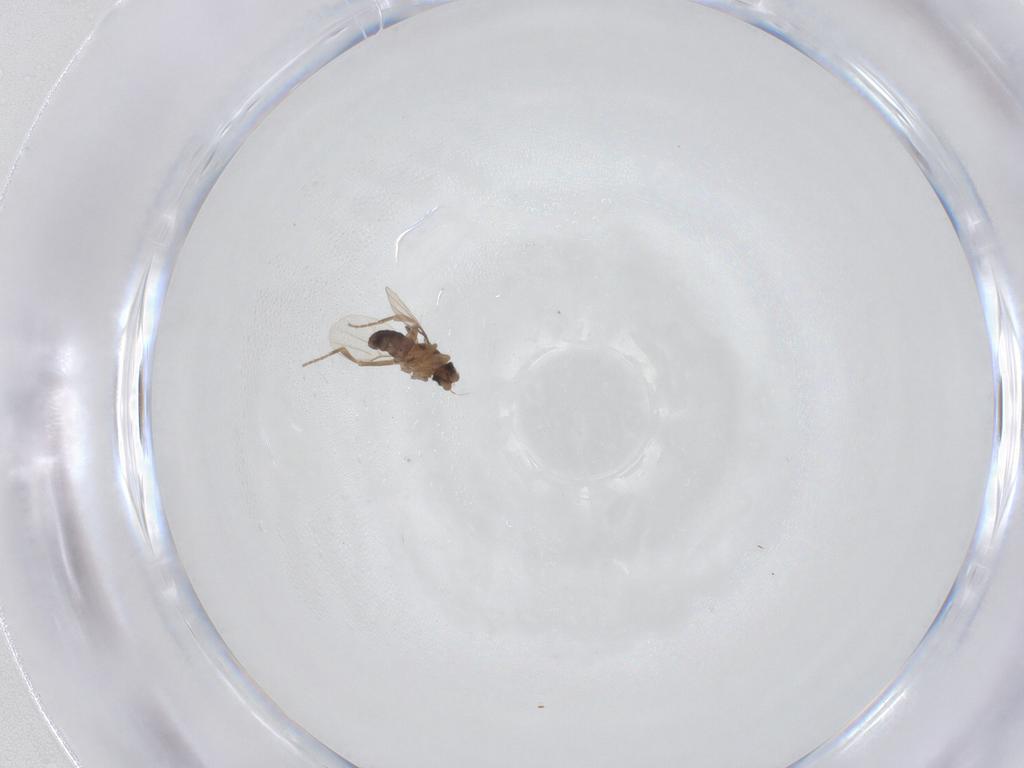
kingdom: Animalia
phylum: Arthropoda
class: Insecta
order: Diptera
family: Phoridae
